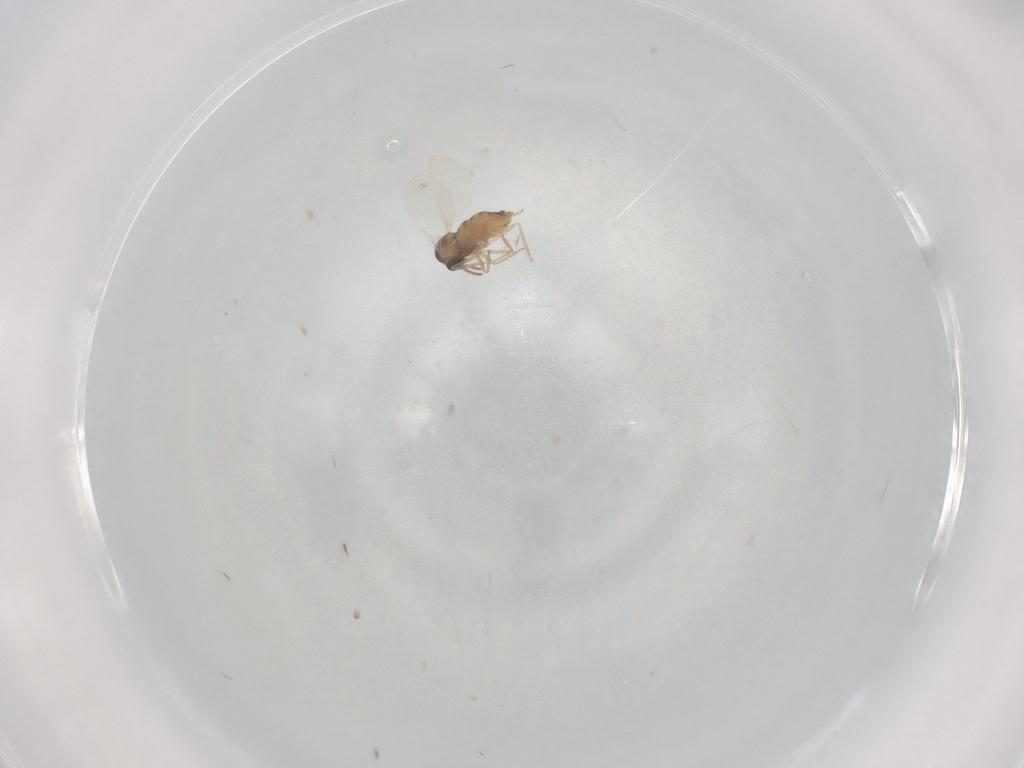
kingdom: Animalia
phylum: Arthropoda
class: Insecta
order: Diptera
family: Cecidomyiidae
